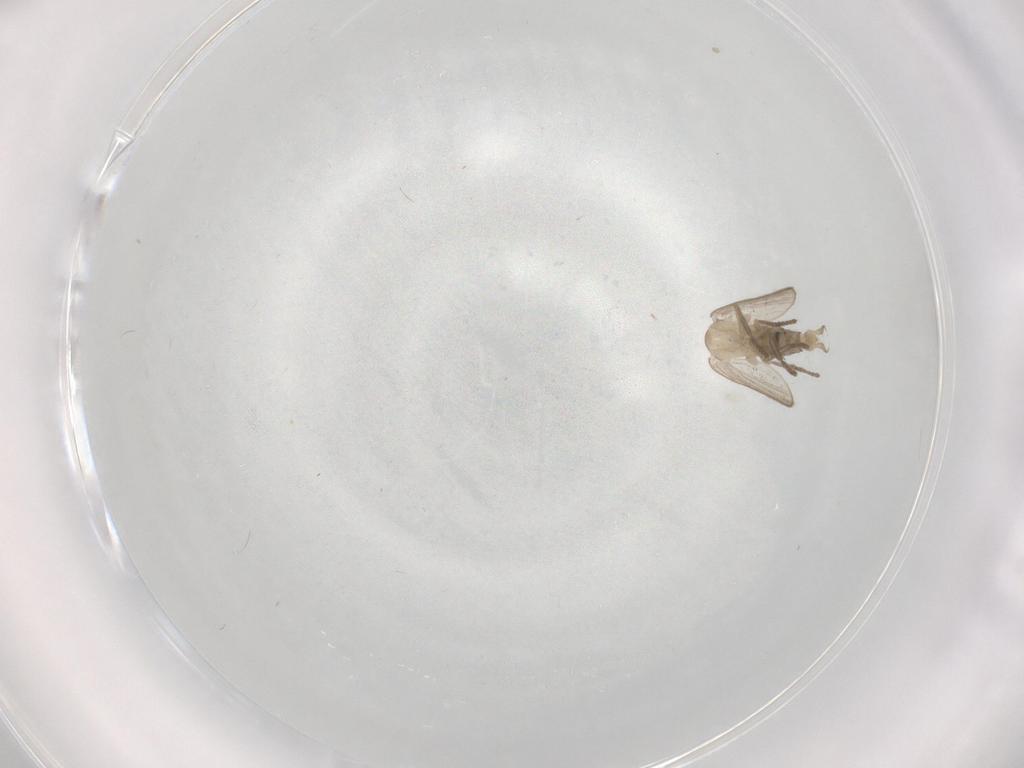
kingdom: Animalia
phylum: Arthropoda
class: Insecta
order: Diptera
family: Psychodidae
